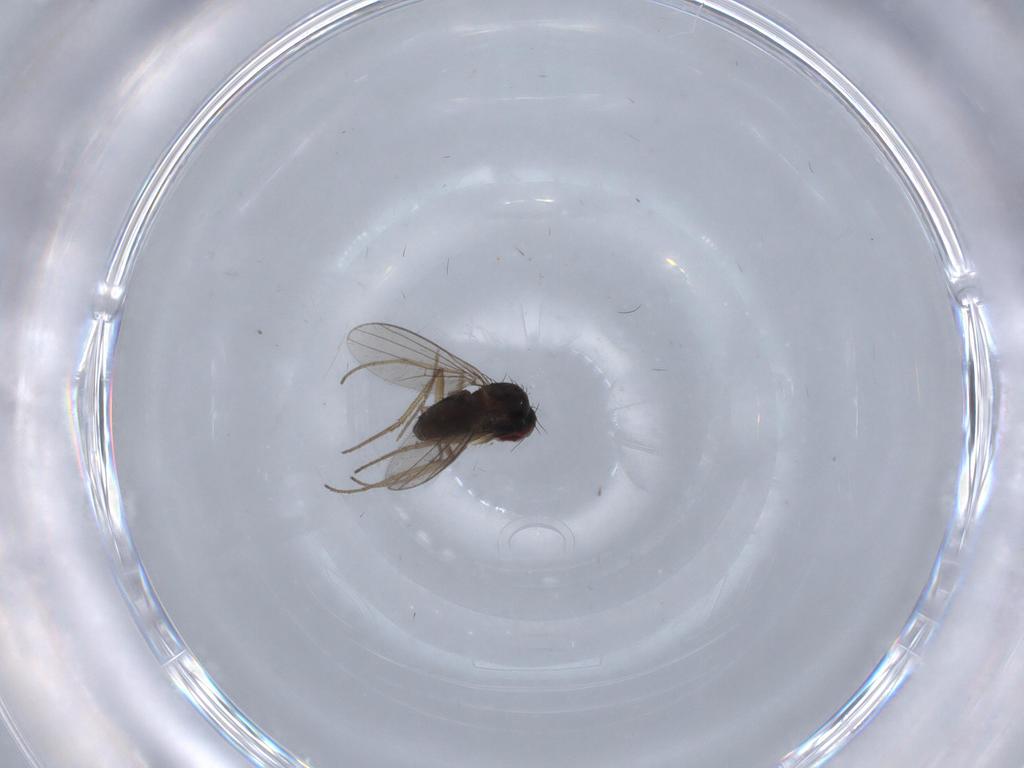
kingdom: Animalia
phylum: Arthropoda
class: Insecta
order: Diptera
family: Dolichopodidae
